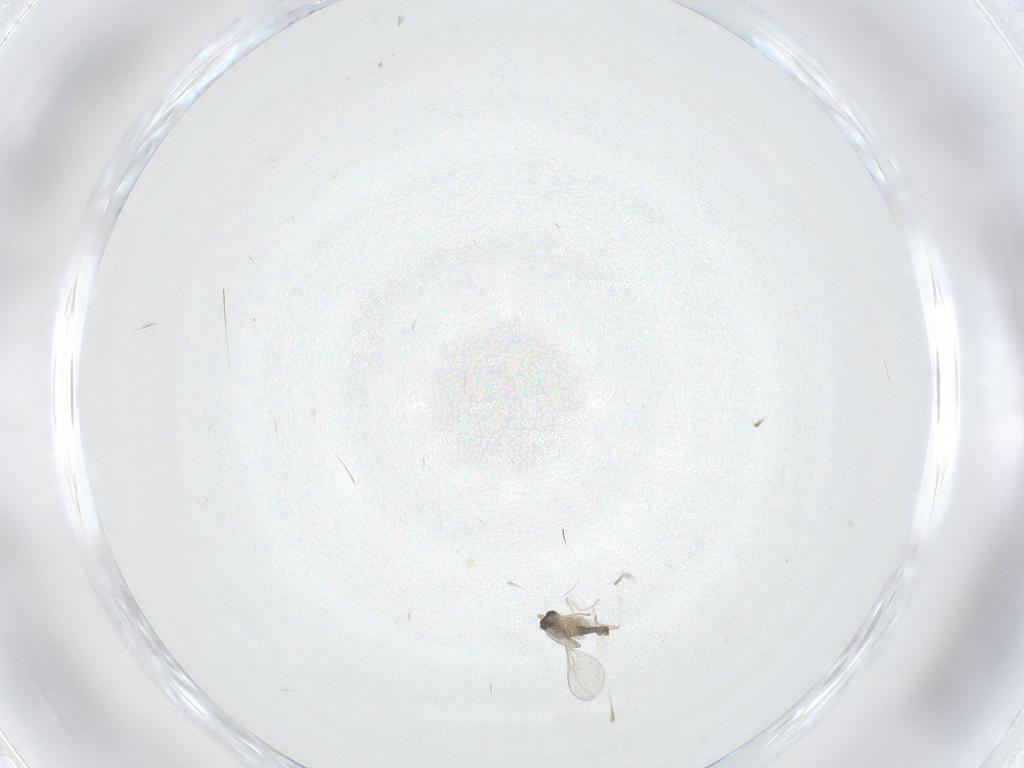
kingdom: Animalia
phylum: Arthropoda
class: Insecta
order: Diptera
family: Cecidomyiidae
